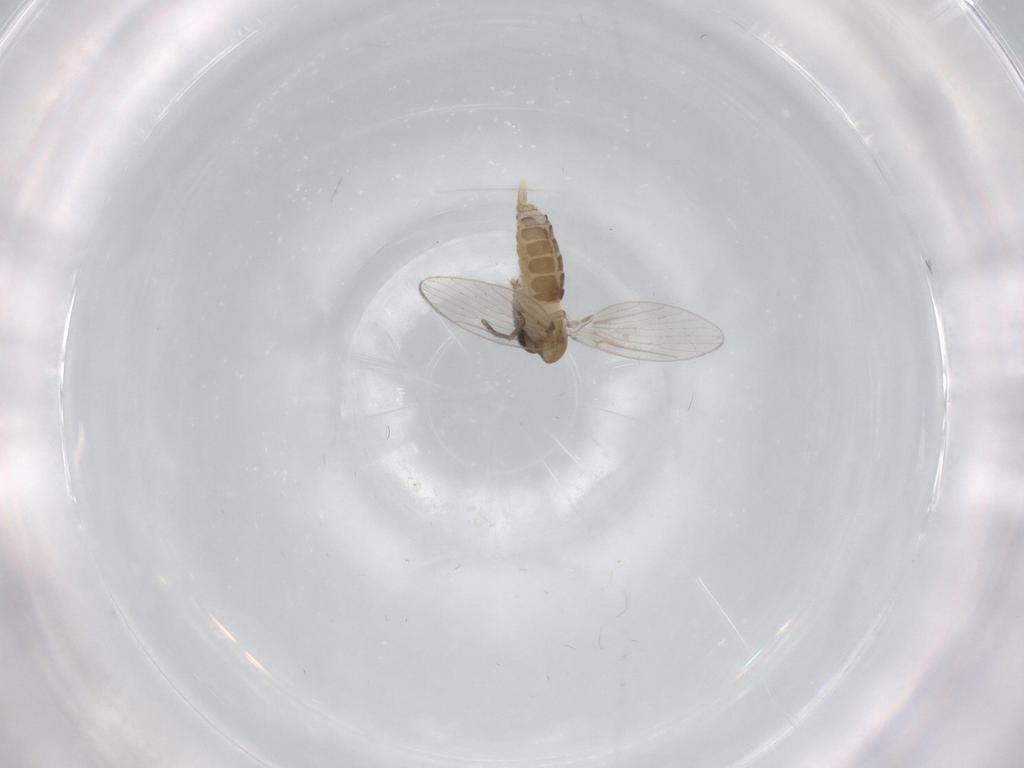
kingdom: Animalia
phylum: Arthropoda
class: Insecta
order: Diptera
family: Psychodidae
